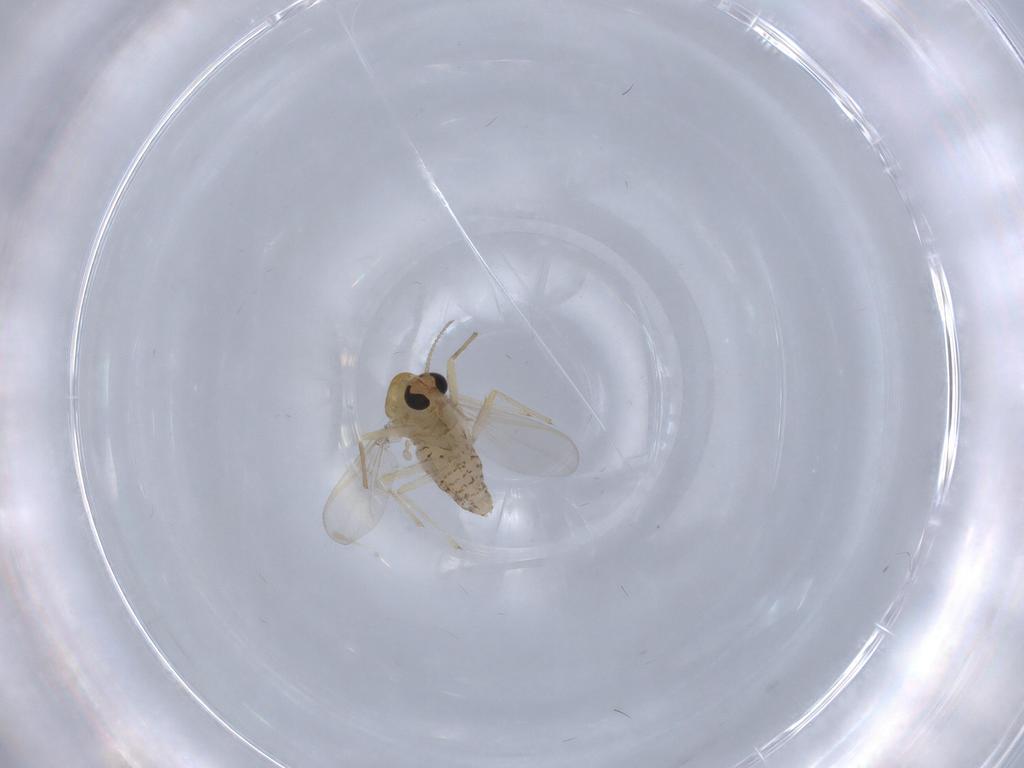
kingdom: Animalia
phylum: Arthropoda
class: Insecta
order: Diptera
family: Chironomidae
